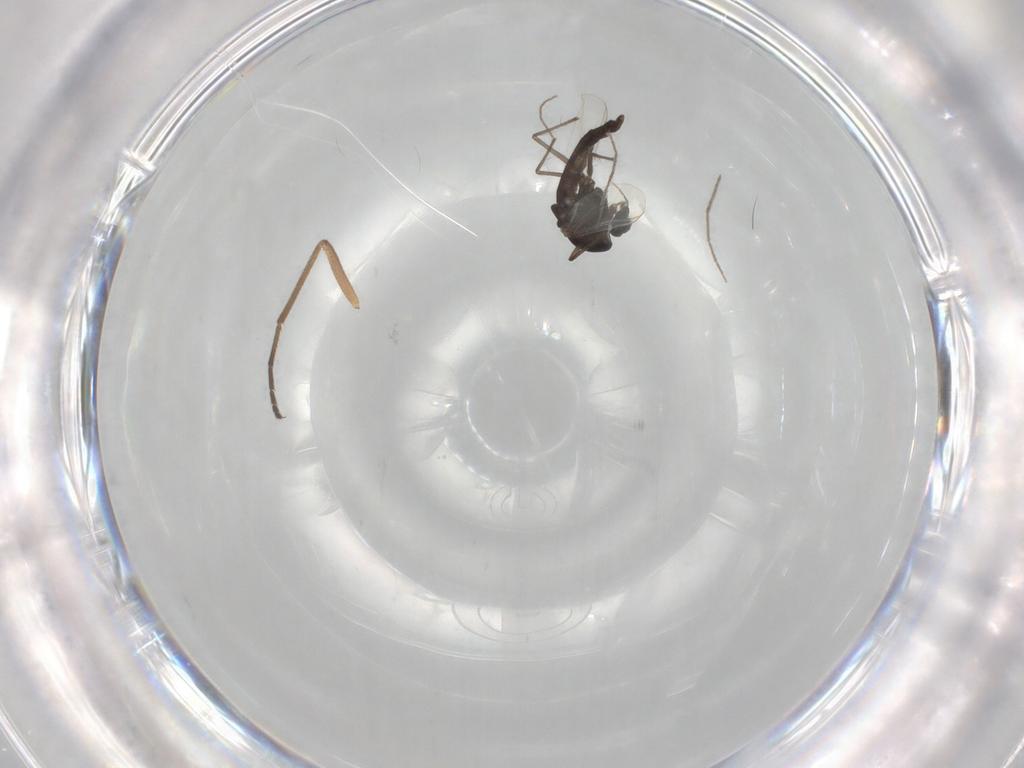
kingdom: Animalia
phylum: Arthropoda
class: Insecta
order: Diptera
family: Chironomidae
